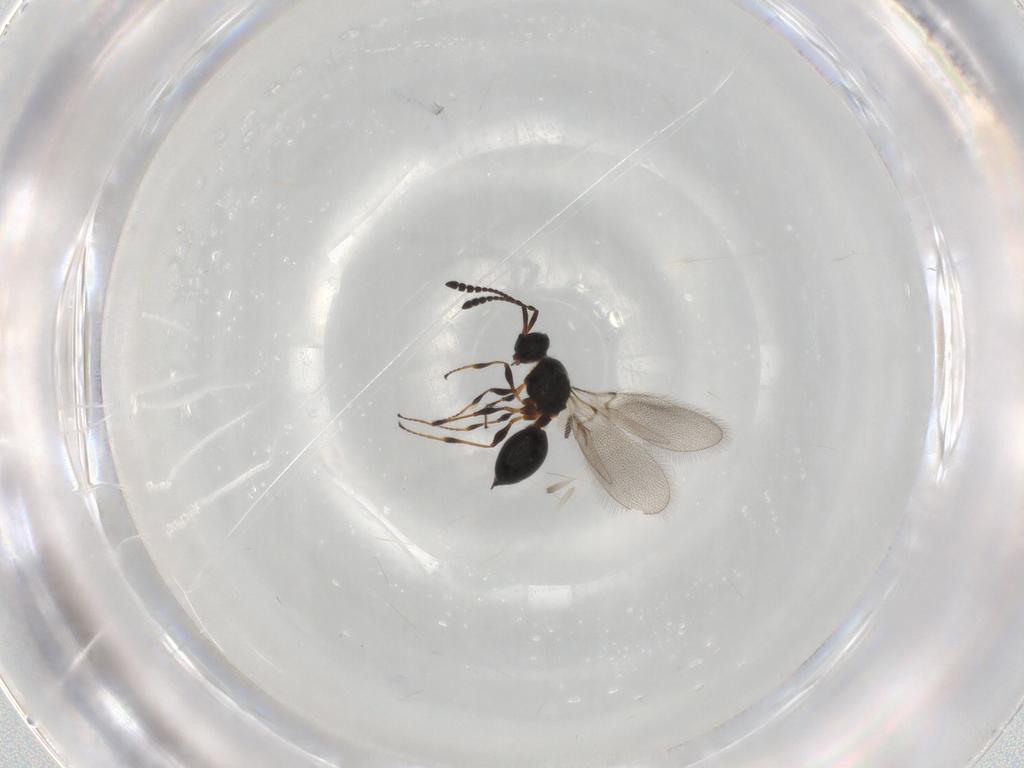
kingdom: Animalia
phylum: Arthropoda
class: Insecta
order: Hymenoptera
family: Diapriidae
